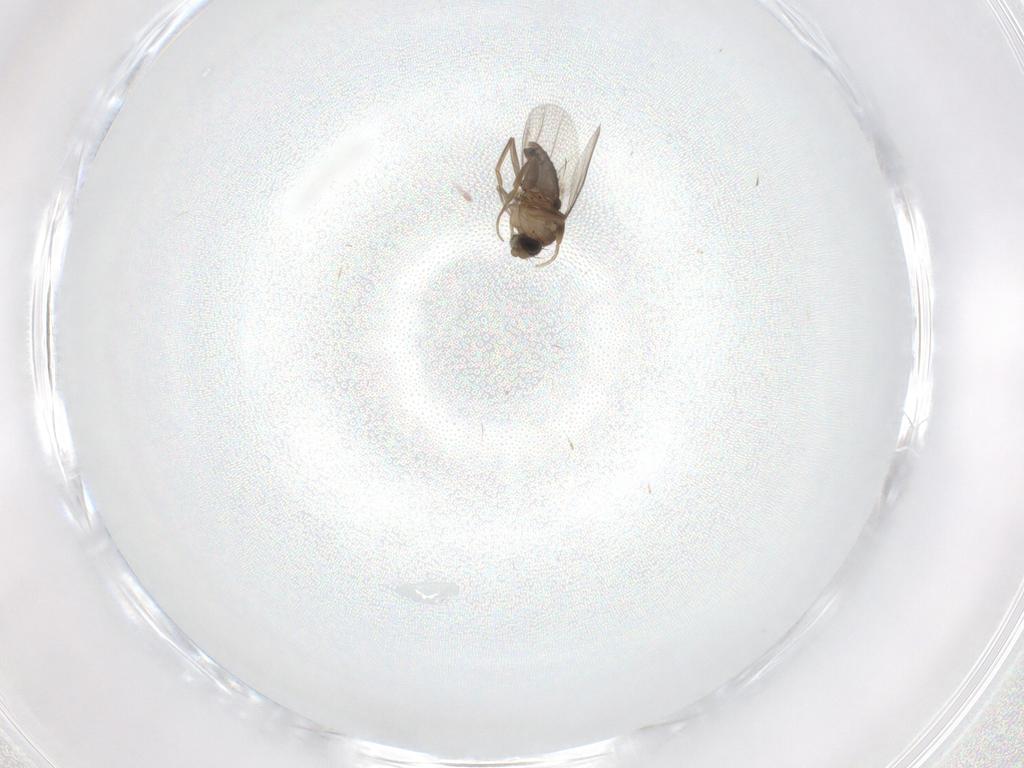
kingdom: Animalia
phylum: Arthropoda
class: Insecta
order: Diptera
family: Phoridae
